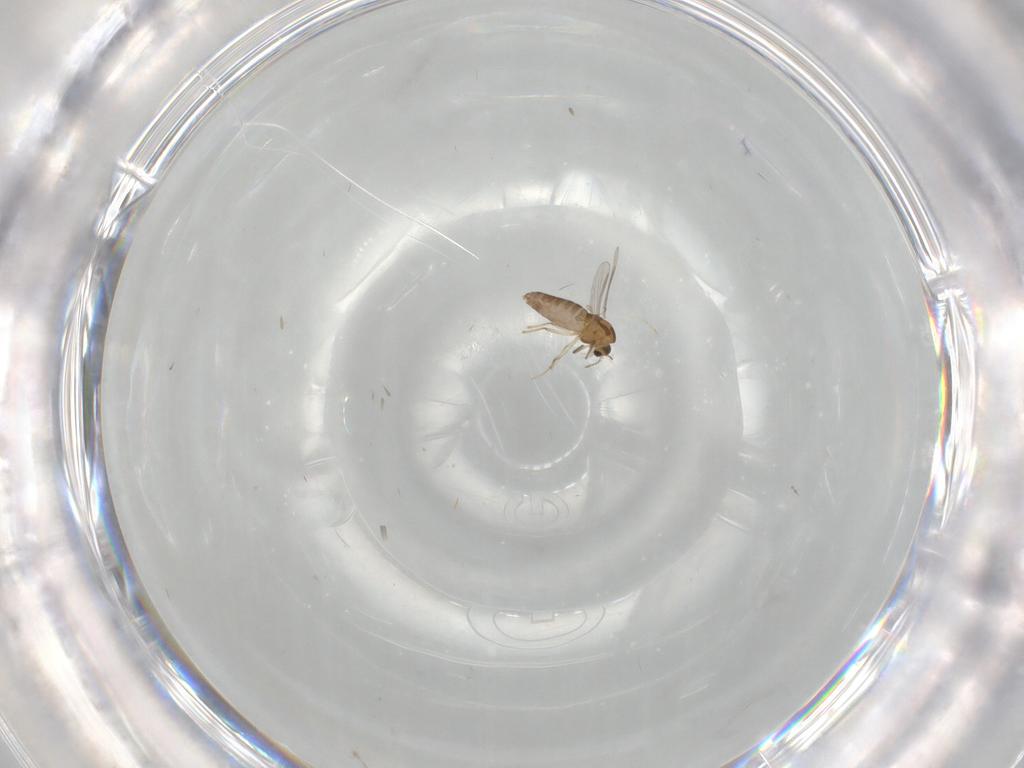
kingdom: Animalia
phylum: Arthropoda
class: Insecta
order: Diptera
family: Chironomidae
